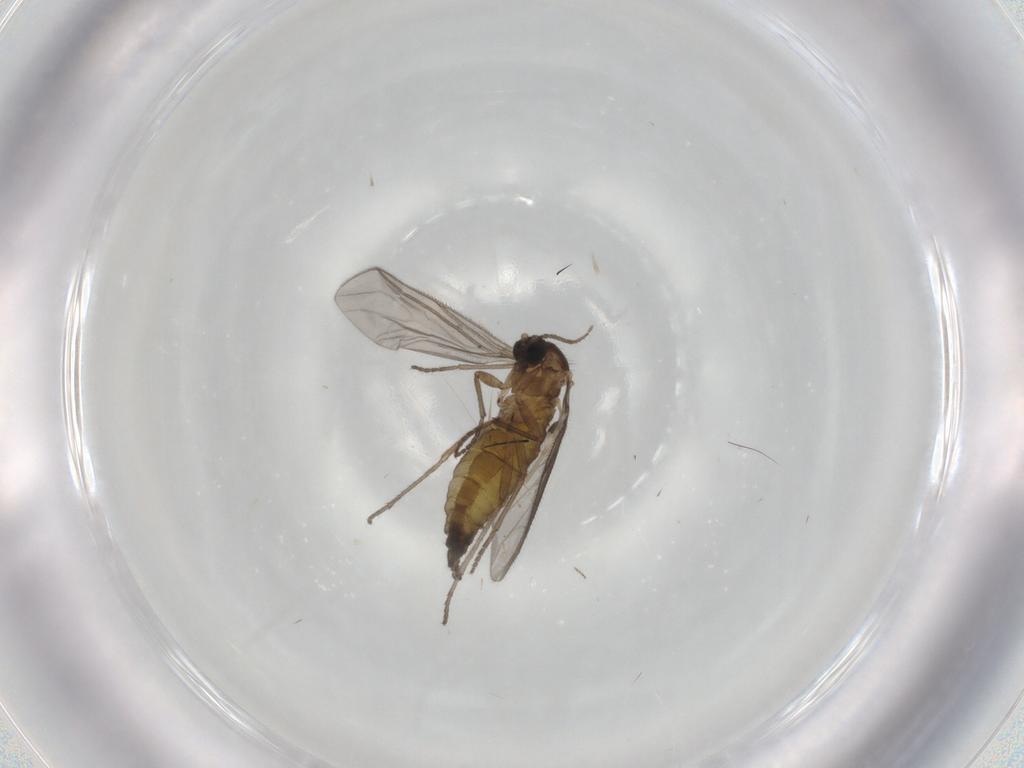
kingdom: Animalia
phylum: Arthropoda
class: Insecta
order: Diptera
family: Sciaridae
